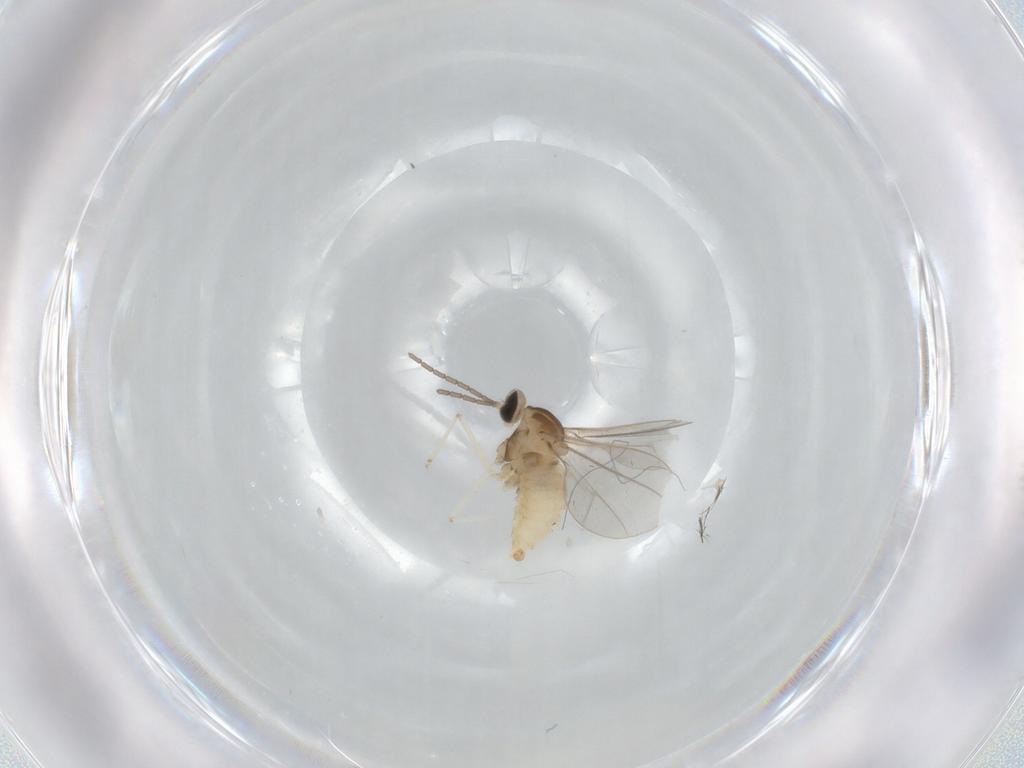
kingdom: Animalia
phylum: Arthropoda
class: Insecta
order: Diptera
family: Cecidomyiidae
